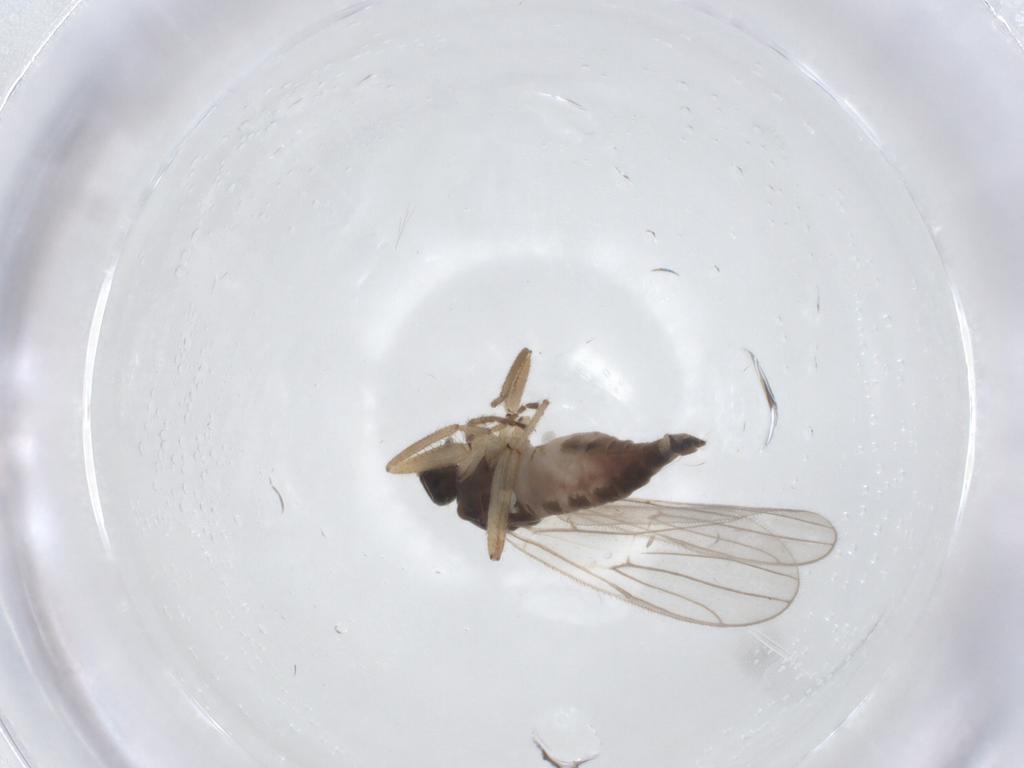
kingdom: Animalia
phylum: Arthropoda
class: Insecta
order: Diptera
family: Hybotidae
